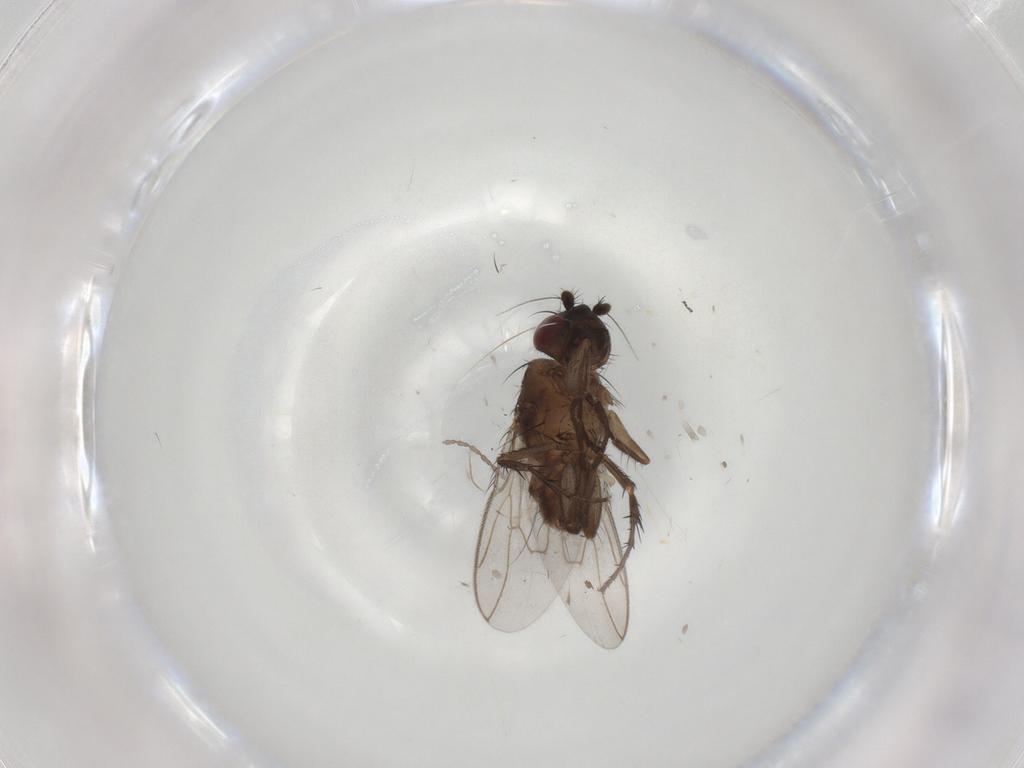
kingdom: Animalia
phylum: Arthropoda
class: Insecta
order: Diptera
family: Sphaeroceridae
